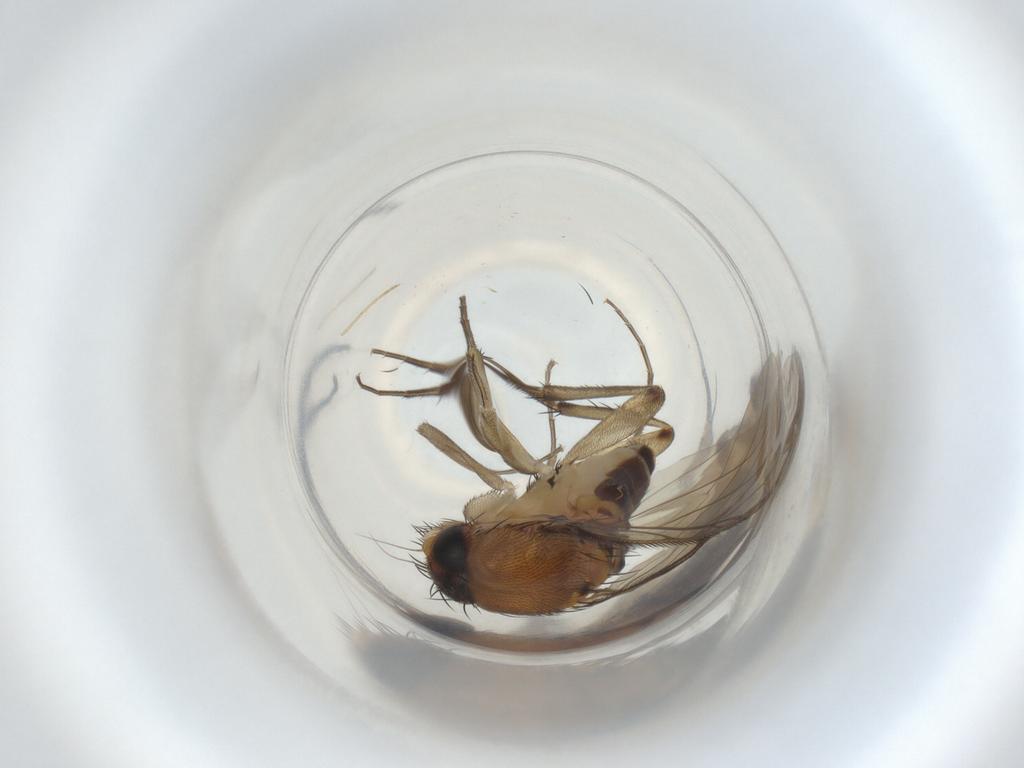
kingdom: Animalia
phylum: Arthropoda
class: Insecta
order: Diptera
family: Phoridae
